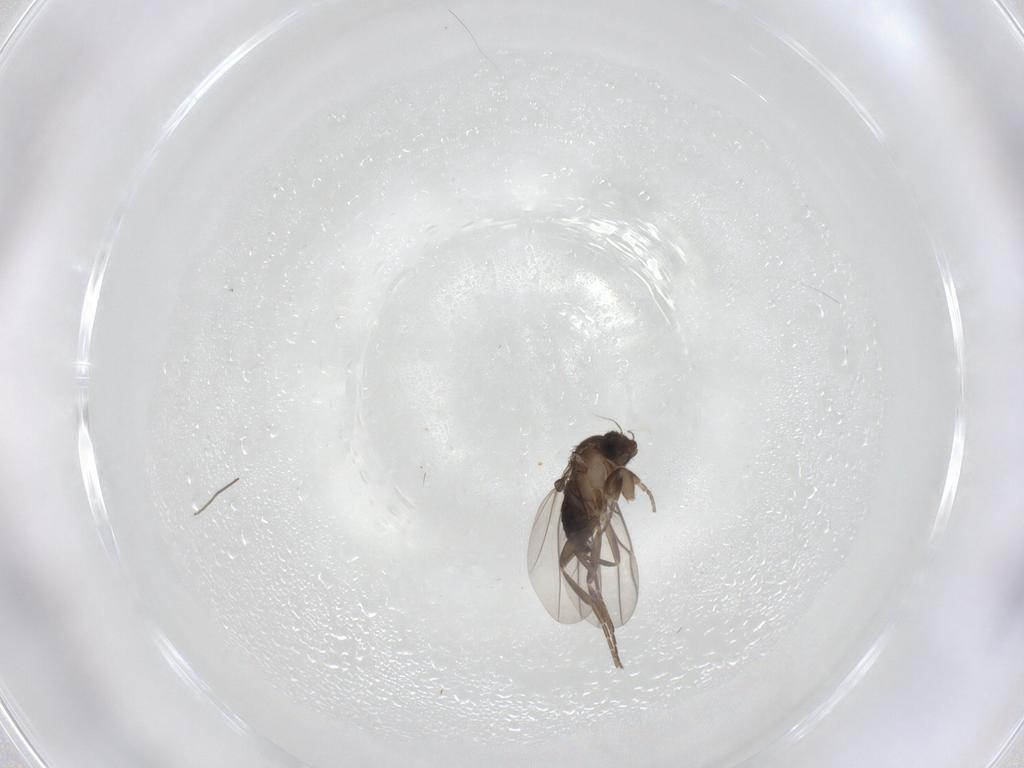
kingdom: Animalia
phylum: Arthropoda
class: Insecta
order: Diptera
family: Phoridae
